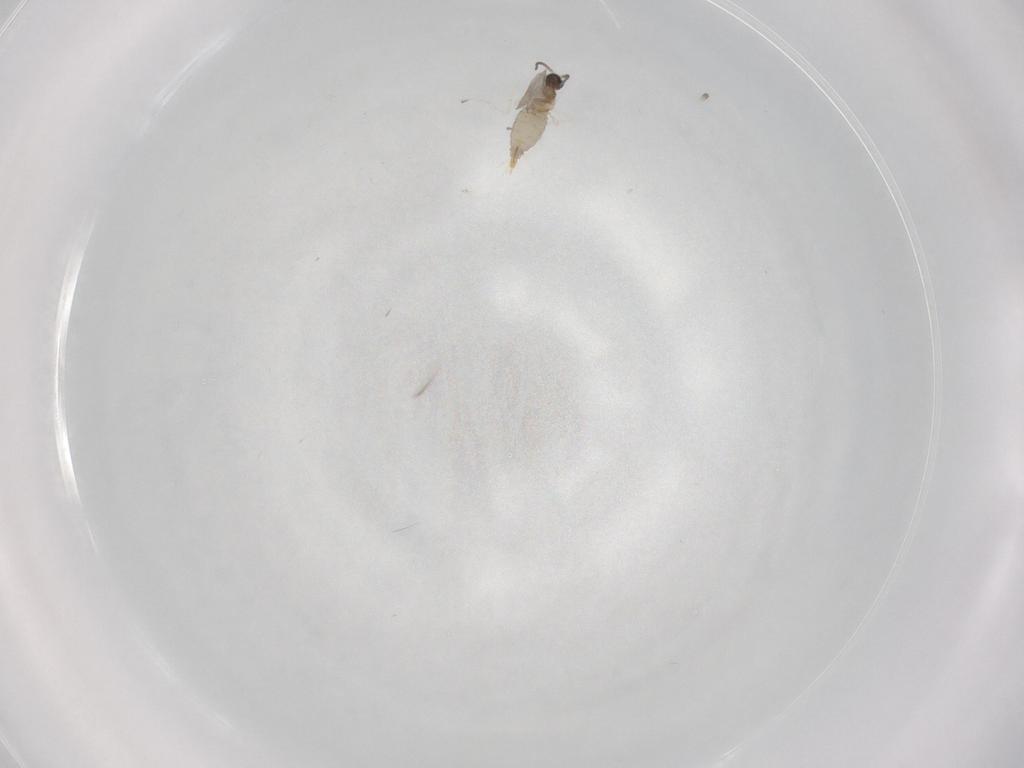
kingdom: Animalia
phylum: Arthropoda
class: Insecta
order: Diptera
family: Cecidomyiidae
